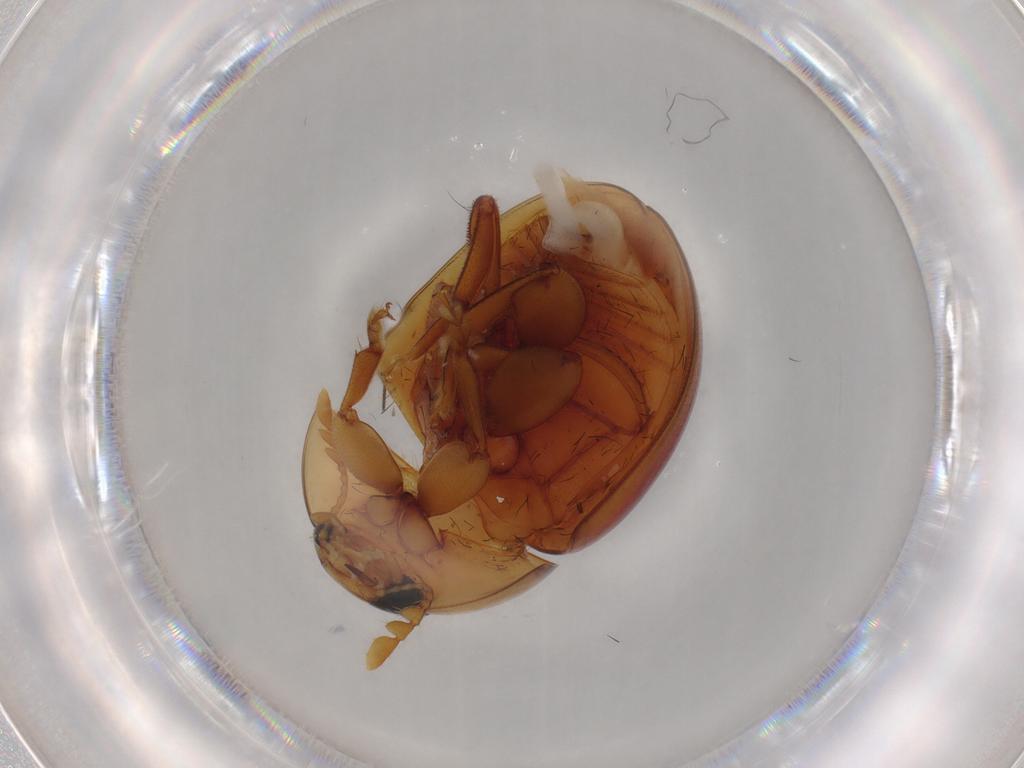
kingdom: Animalia
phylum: Arthropoda
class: Insecta
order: Coleoptera
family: Phalacridae
